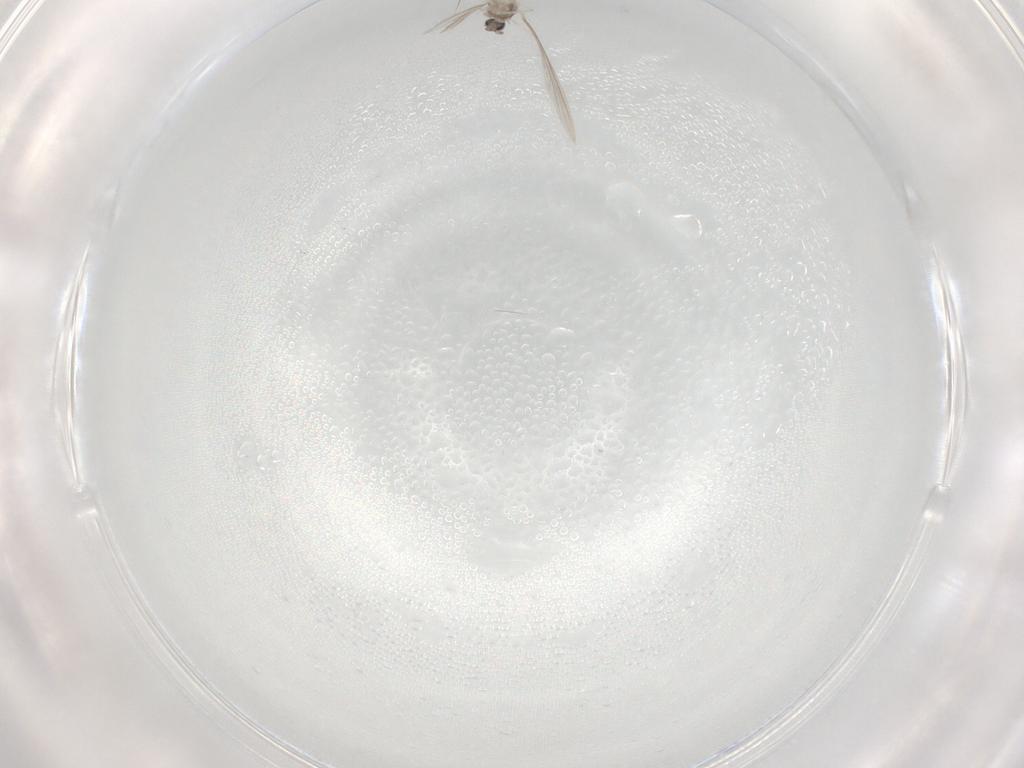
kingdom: Animalia
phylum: Arthropoda
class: Insecta
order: Diptera
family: Cecidomyiidae
